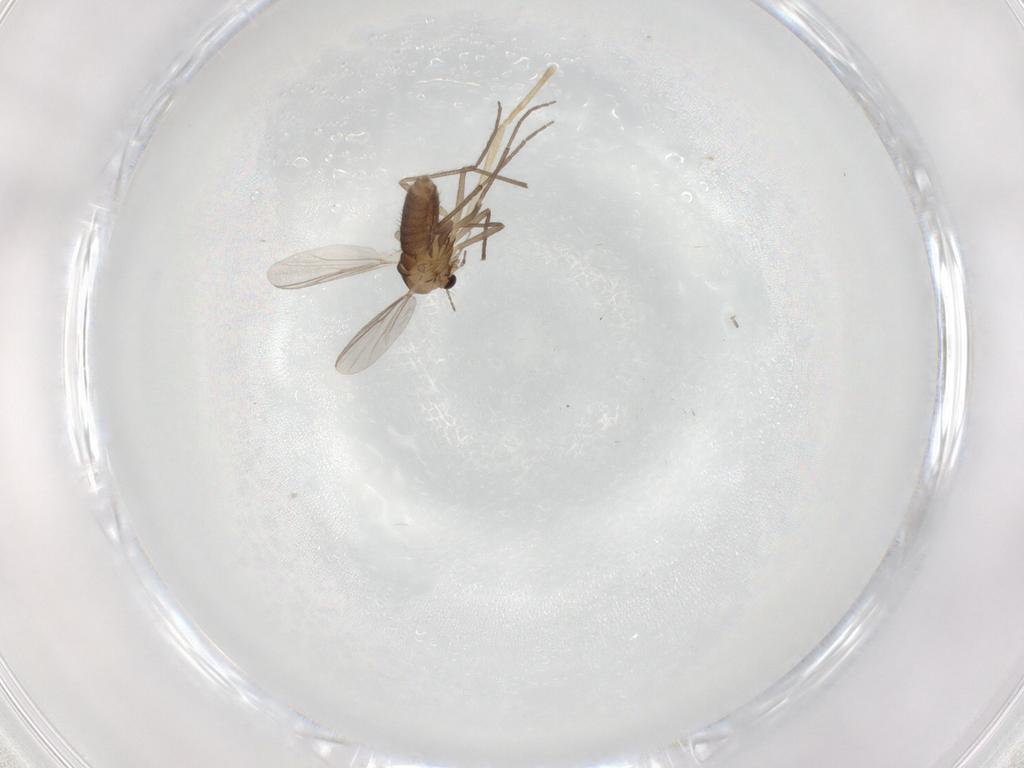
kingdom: Animalia
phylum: Arthropoda
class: Insecta
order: Diptera
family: Chironomidae
